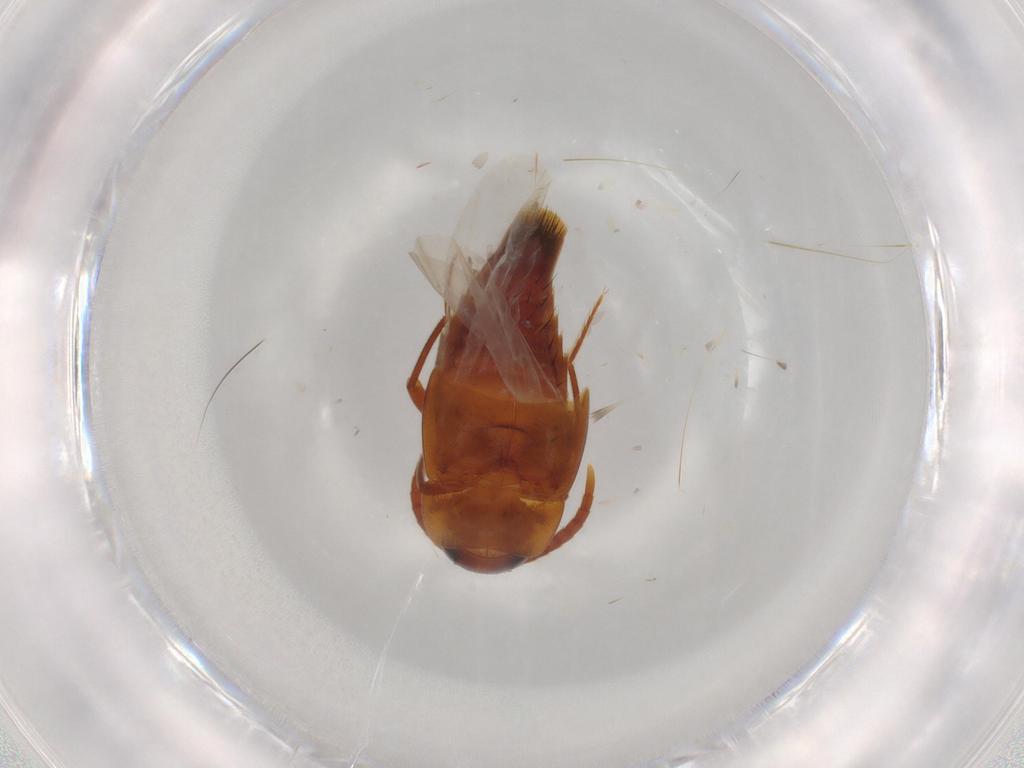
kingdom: Animalia
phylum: Arthropoda
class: Insecta
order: Coleoptera
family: Staphylinidae
